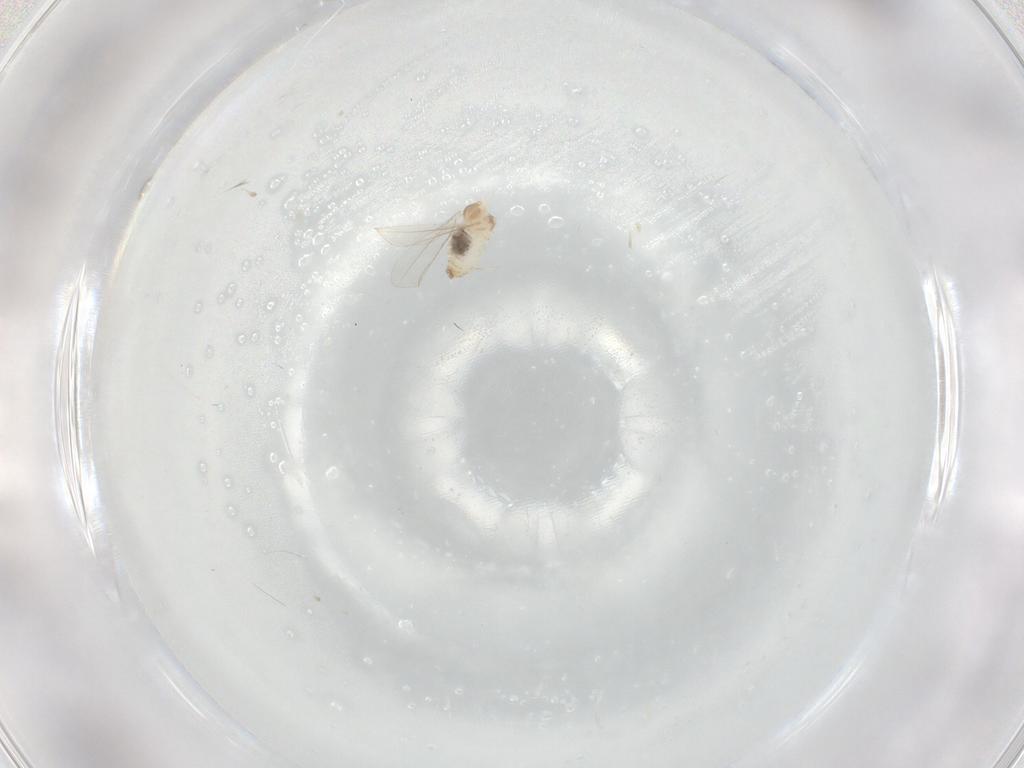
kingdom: Animalia
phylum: Arthropoda
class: Insecta
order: Diptera
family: Cecidomyiidae
